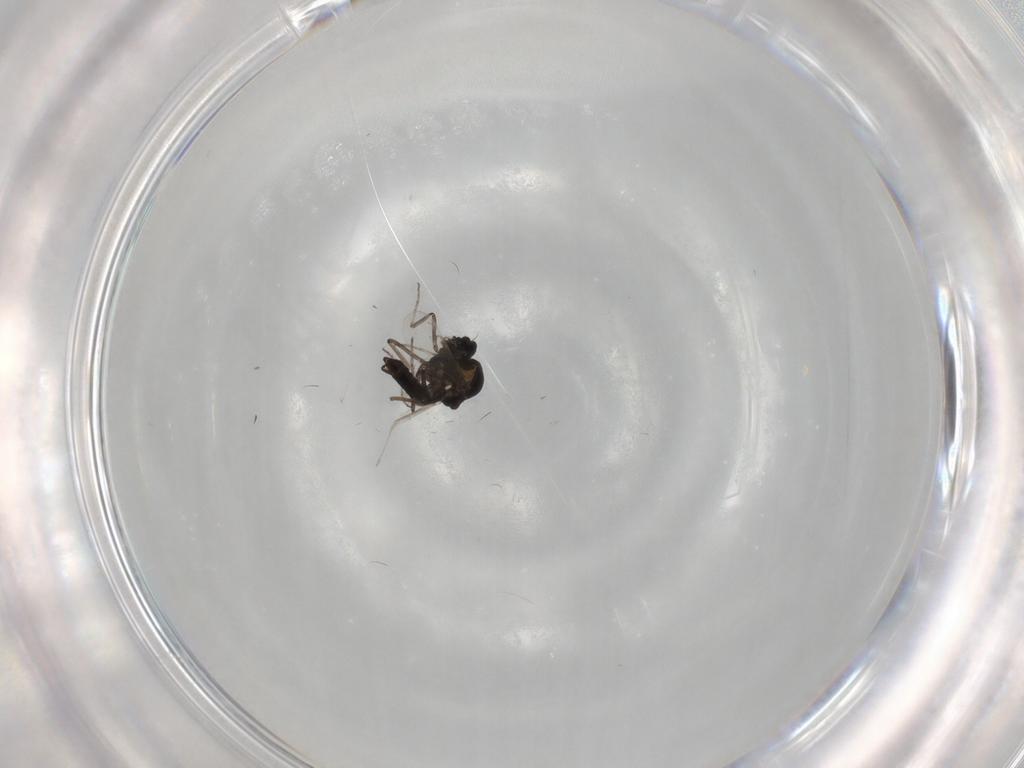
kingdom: Animalia
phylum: Arthropoda
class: Insecta
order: Diptera
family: Ceratopogonidae
